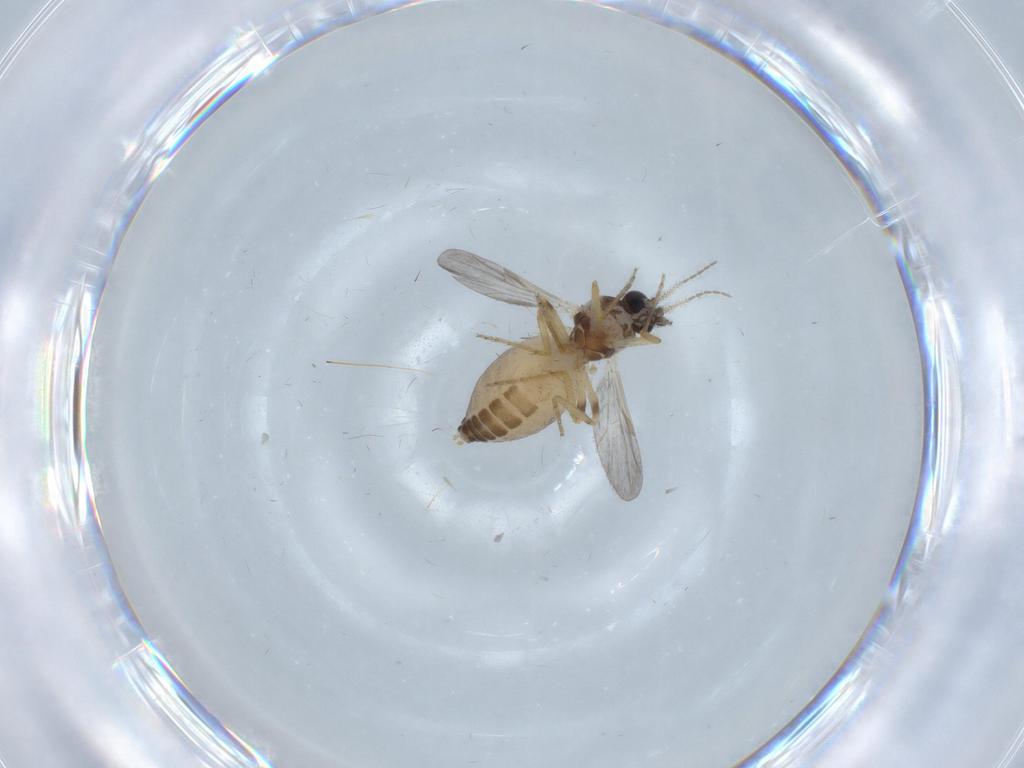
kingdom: Animalia
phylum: Arthropoda
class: Insecta
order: Diptera
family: Ceratopogonidae
